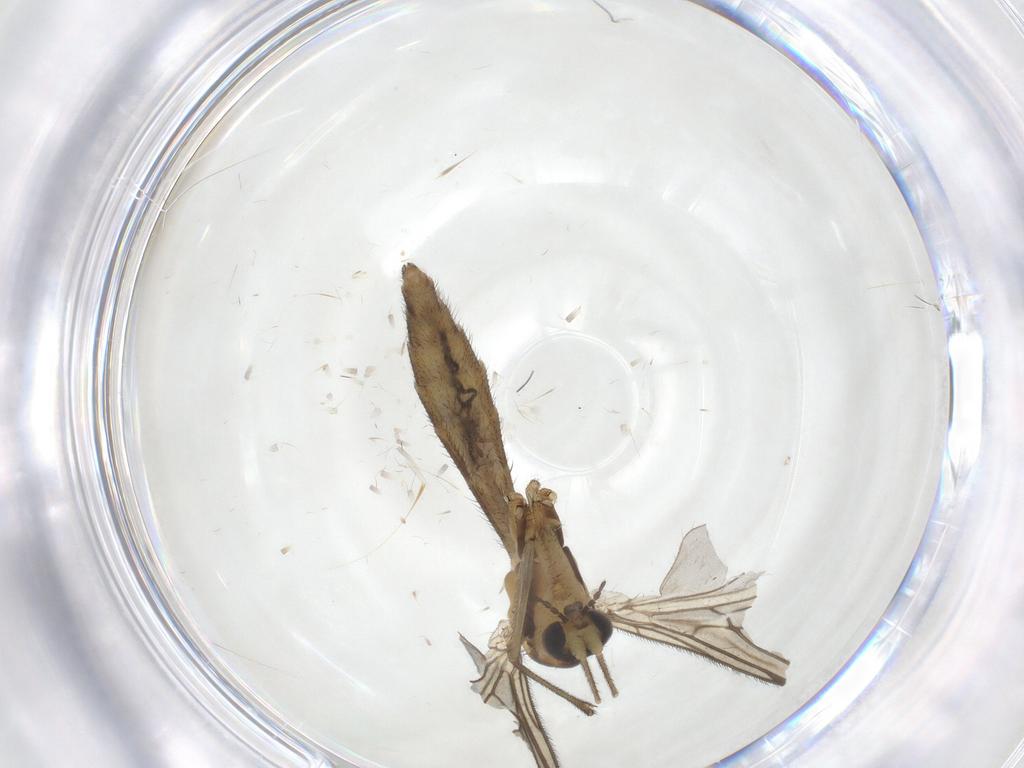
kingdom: Animalia
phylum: Arthropoda
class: Insecta
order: Diptera
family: Keroplatidae
